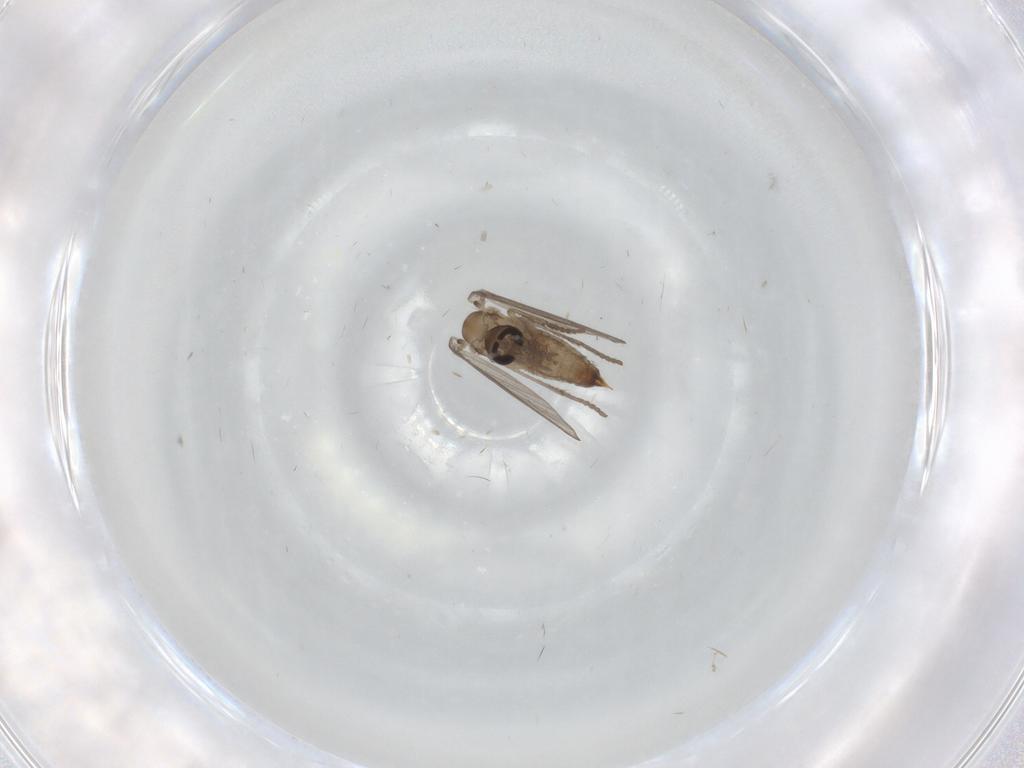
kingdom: Animalia
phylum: Arthropoda
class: Insecta
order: Diptera
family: Psychodidae
